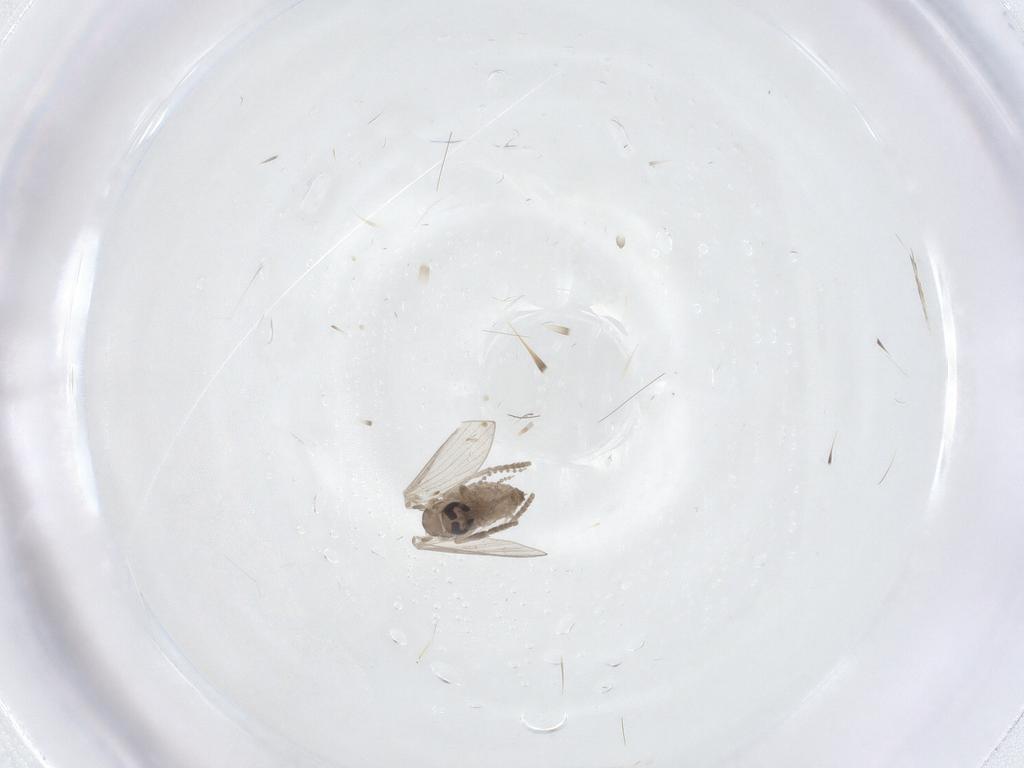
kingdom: Animalia
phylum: Arthropoda
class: Insecta
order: Diptera
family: Psychodidae
